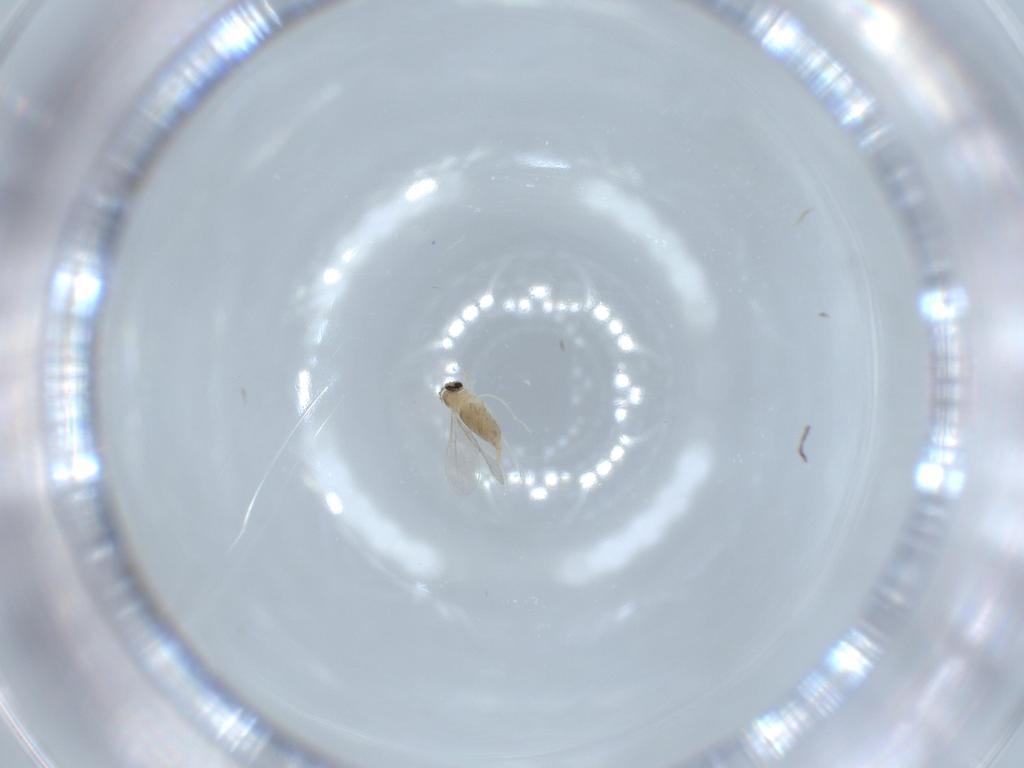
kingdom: Animalia
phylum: Arthropoda
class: Insecta
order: Diptera
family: Cecidomyiidae
